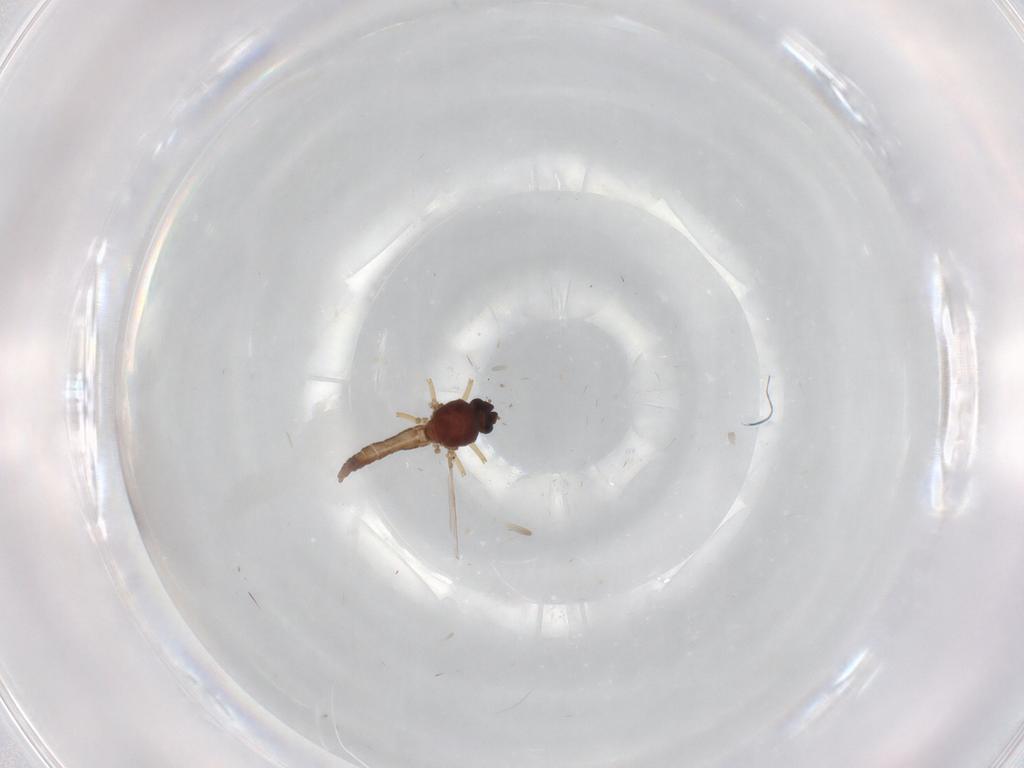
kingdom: Animalia
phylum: Arthropoda
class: Insecta
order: Diptera
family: Ceratopogonidae
